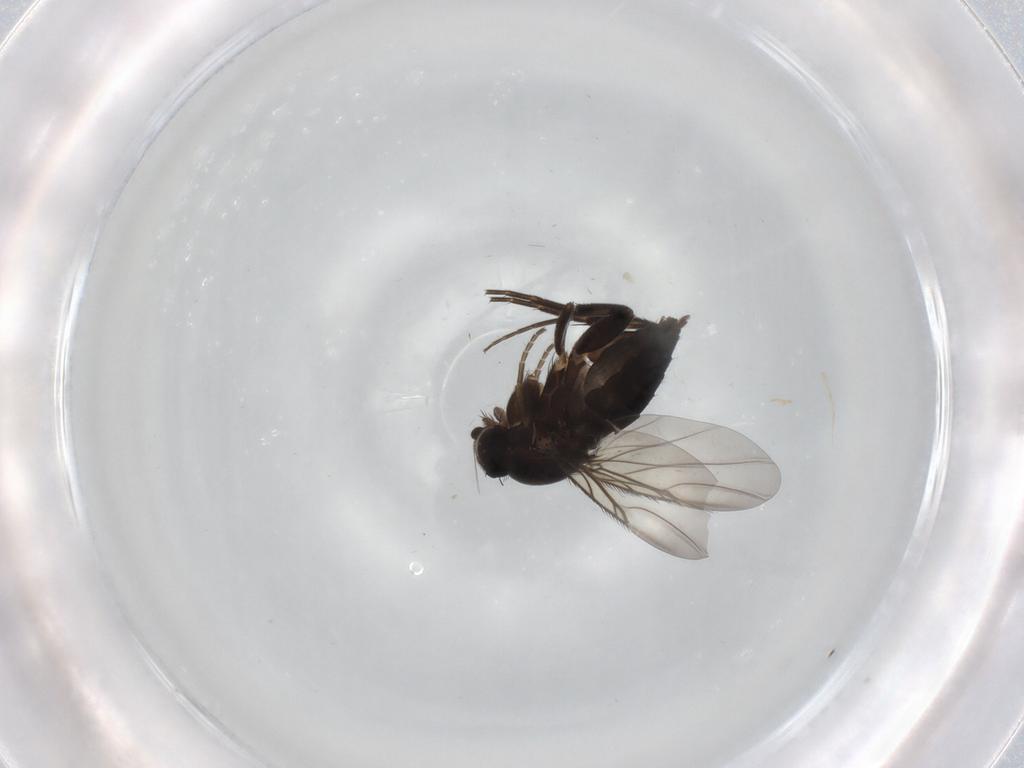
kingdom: Animalia
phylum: Arthropoda
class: Insecta
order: Diptera
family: Phoridae
